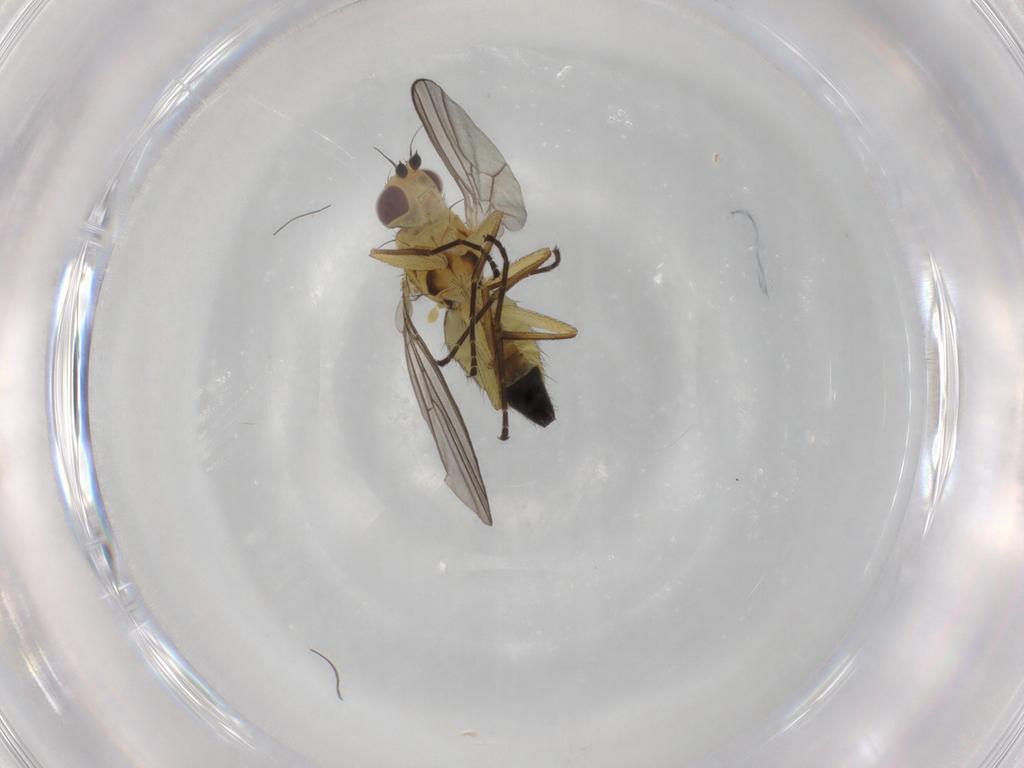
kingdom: Animalia
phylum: Arthropoda
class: Insecta
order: Diptera
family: Agromyzidae
